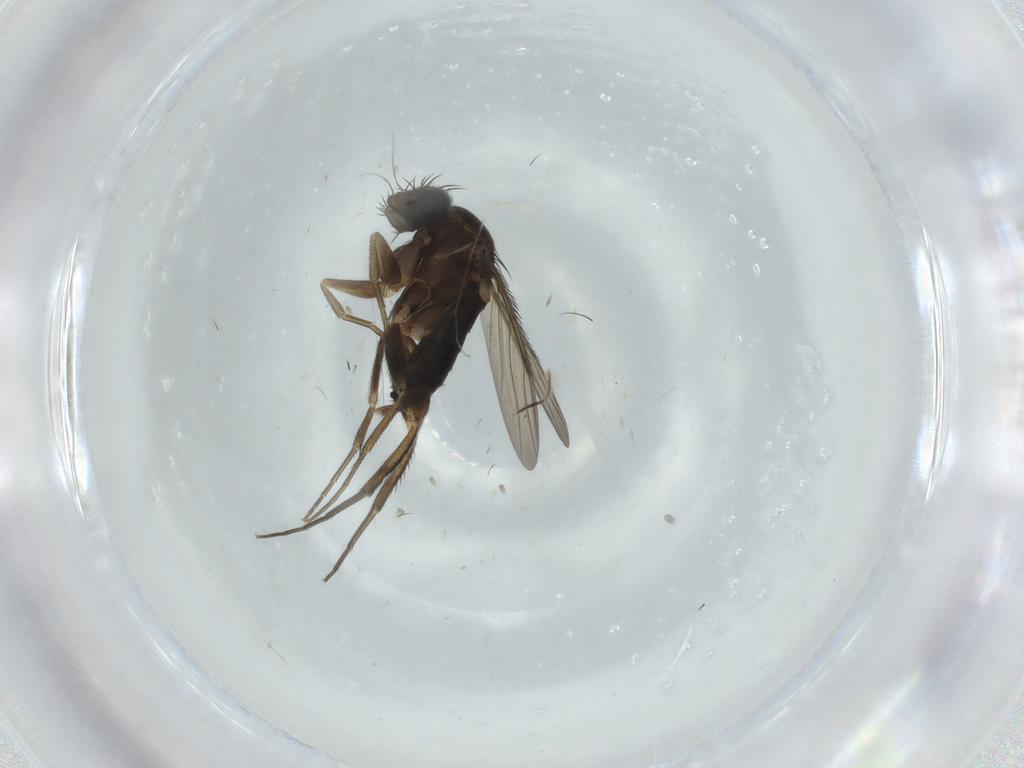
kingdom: Animalia
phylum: Arthropoda
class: Insecta
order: Diptera
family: Phoridae
